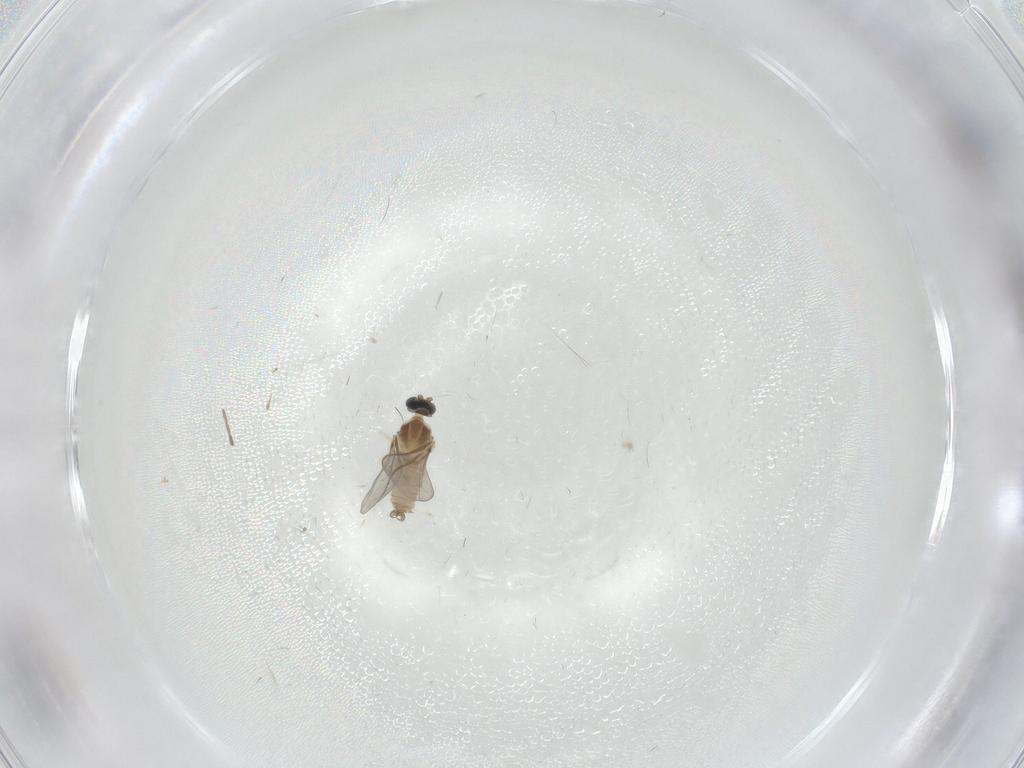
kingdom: Animalia
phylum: Arthropoda
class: Insecta
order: Diptera
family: Cecidomyiidae
